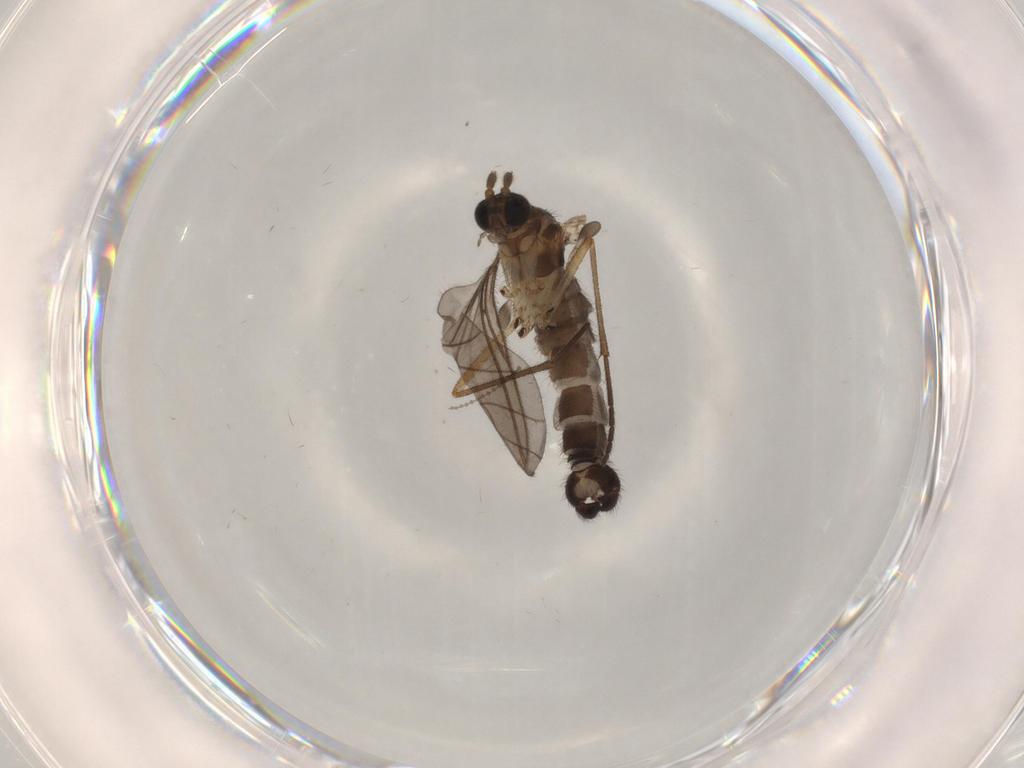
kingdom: Animalia
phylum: Arthropoda
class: Insecta
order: Diptera
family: Sciaridae
